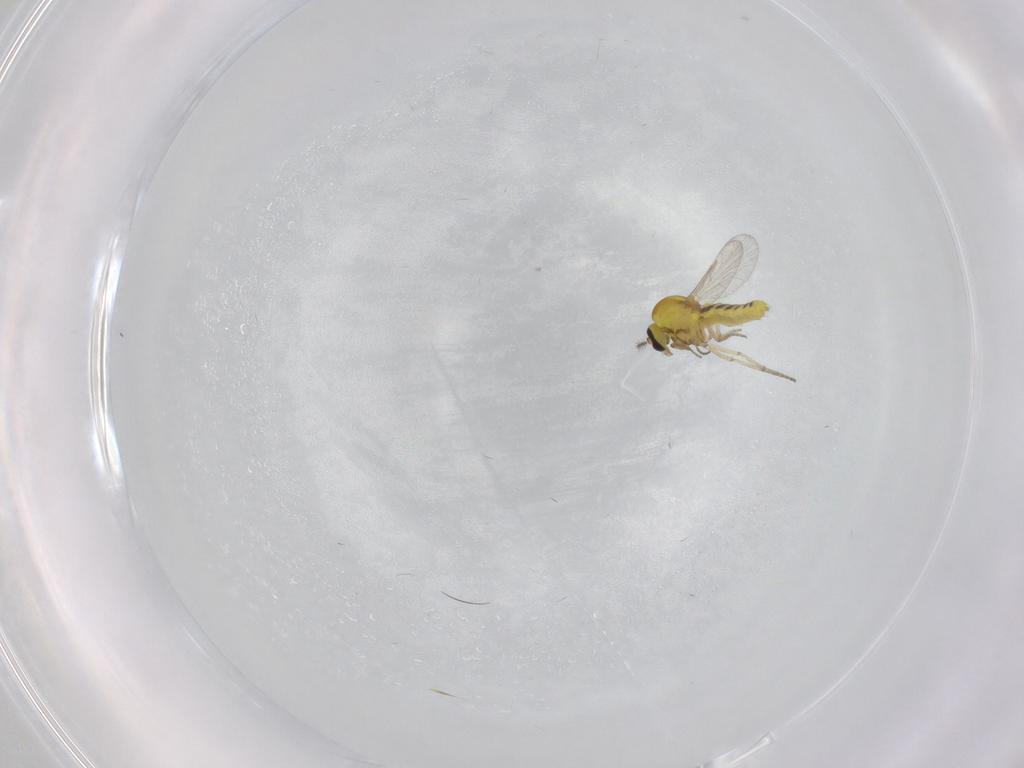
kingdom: Animalia
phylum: Arthropoda
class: Insecta
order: Diptera
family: Ceratopogonidae
